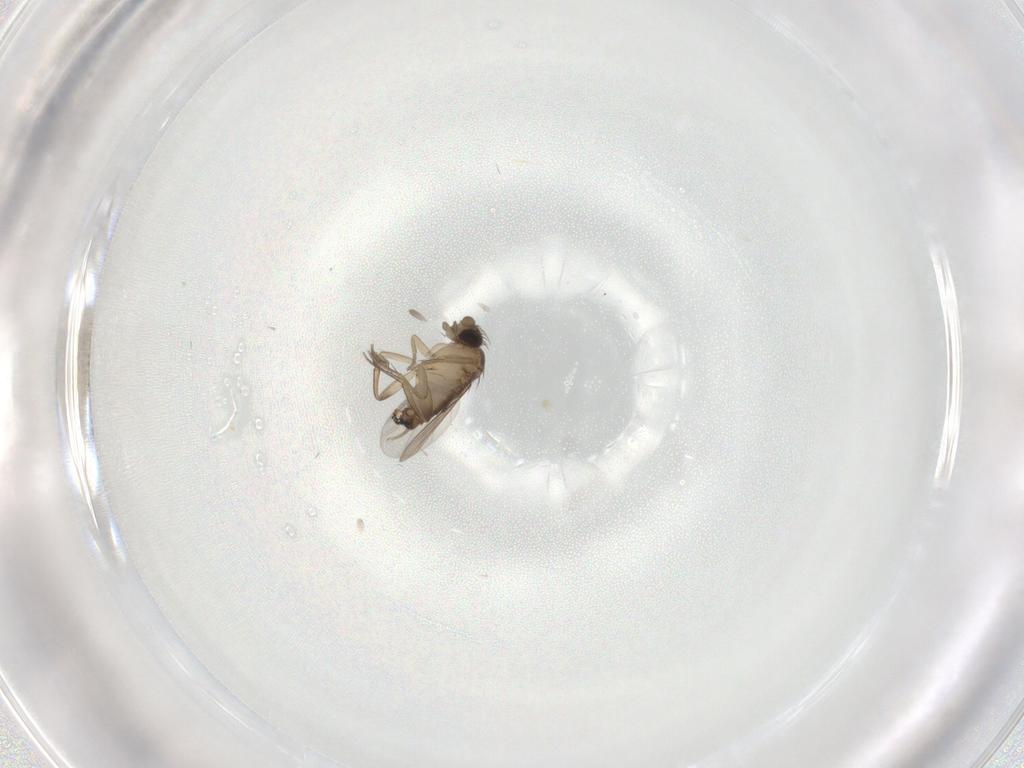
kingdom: Animalia
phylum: Arthropoda
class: Insecta
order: Diptera
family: Phoridae
